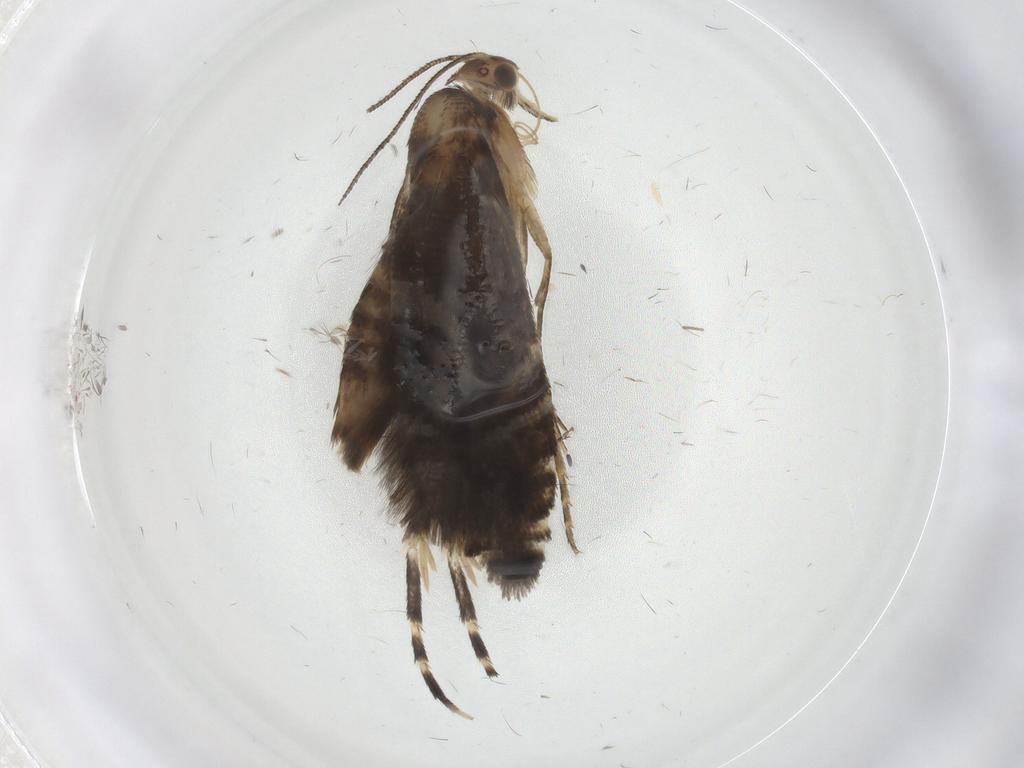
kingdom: Animalia
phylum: Arthropoda
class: Insecta
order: Lepidoptera
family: Glyphipterigidae
